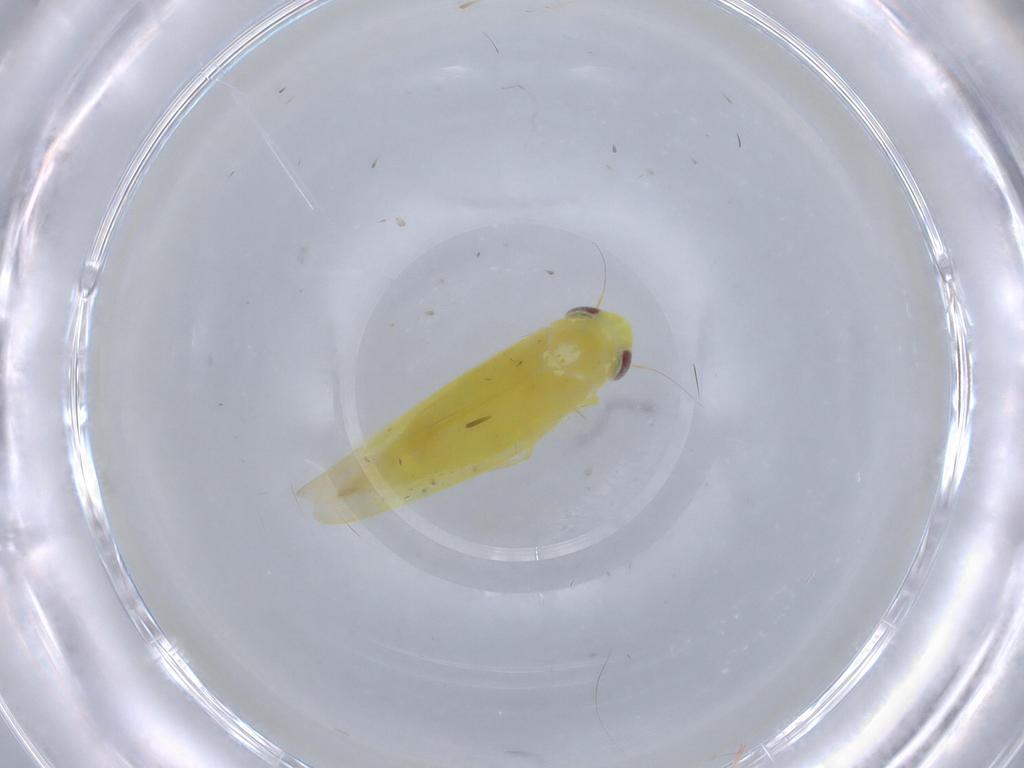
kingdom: Animalia
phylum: Arthropoda
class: Insecta
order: Hemiptera
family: Cicadellidae
